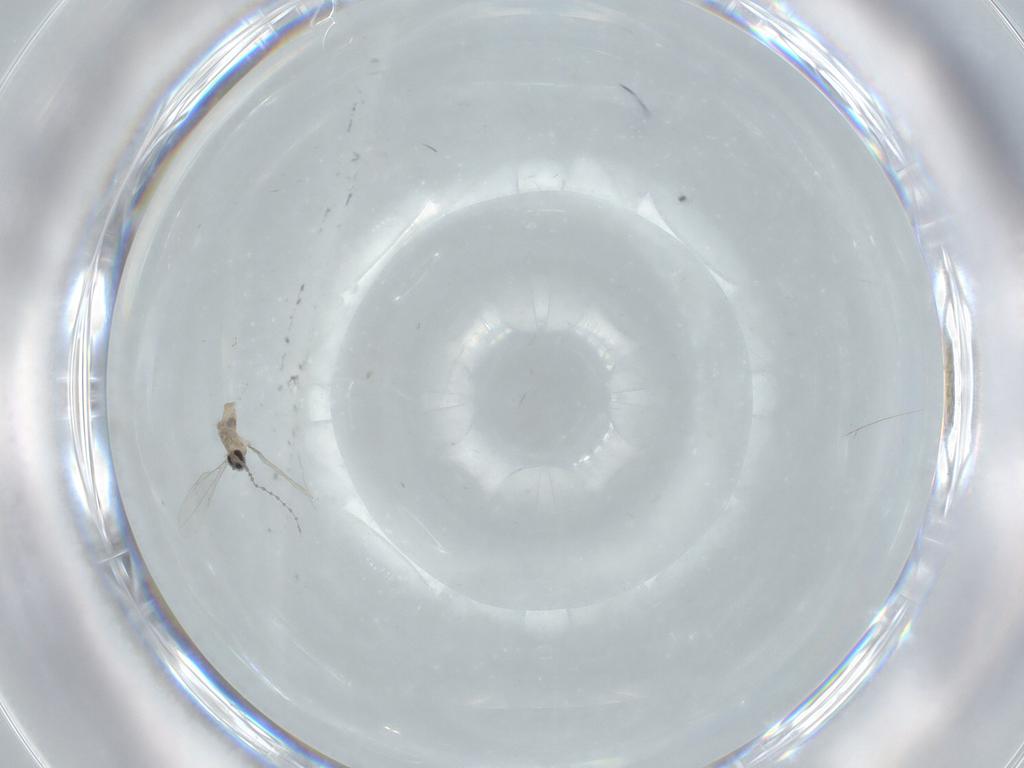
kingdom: Animalia
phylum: Arthropoda
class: Insecta
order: Diptera
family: Cecidomyiidae
